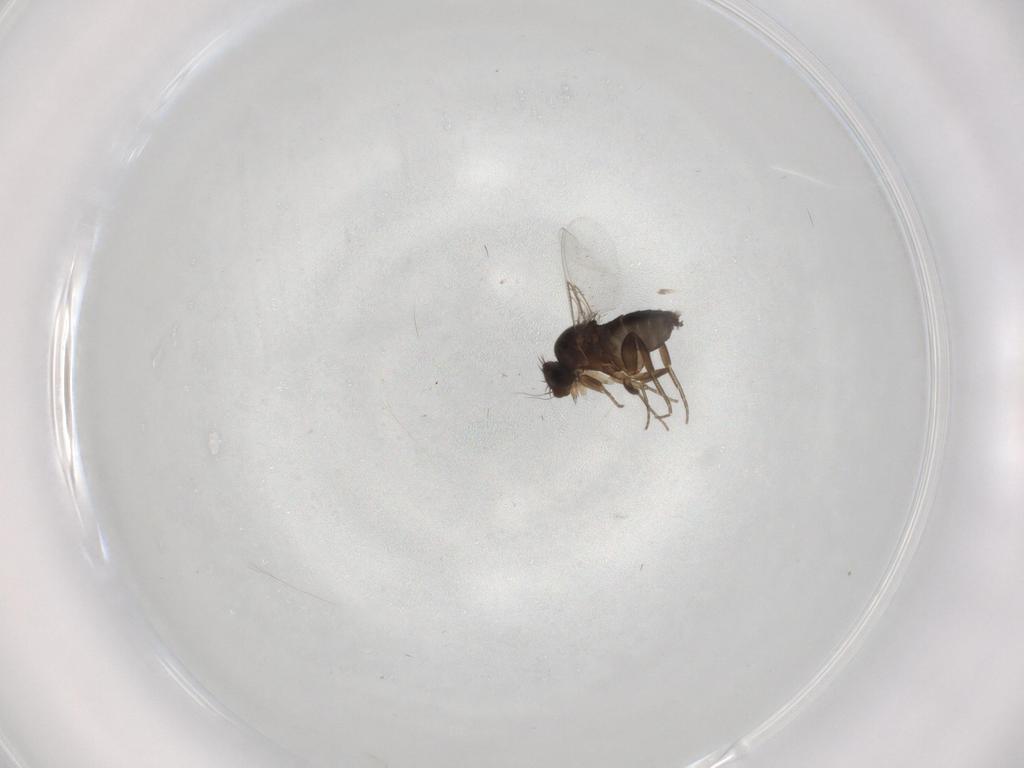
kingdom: Animalia
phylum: Arthropoda
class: Insecta
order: Diptera
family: Phoridae
